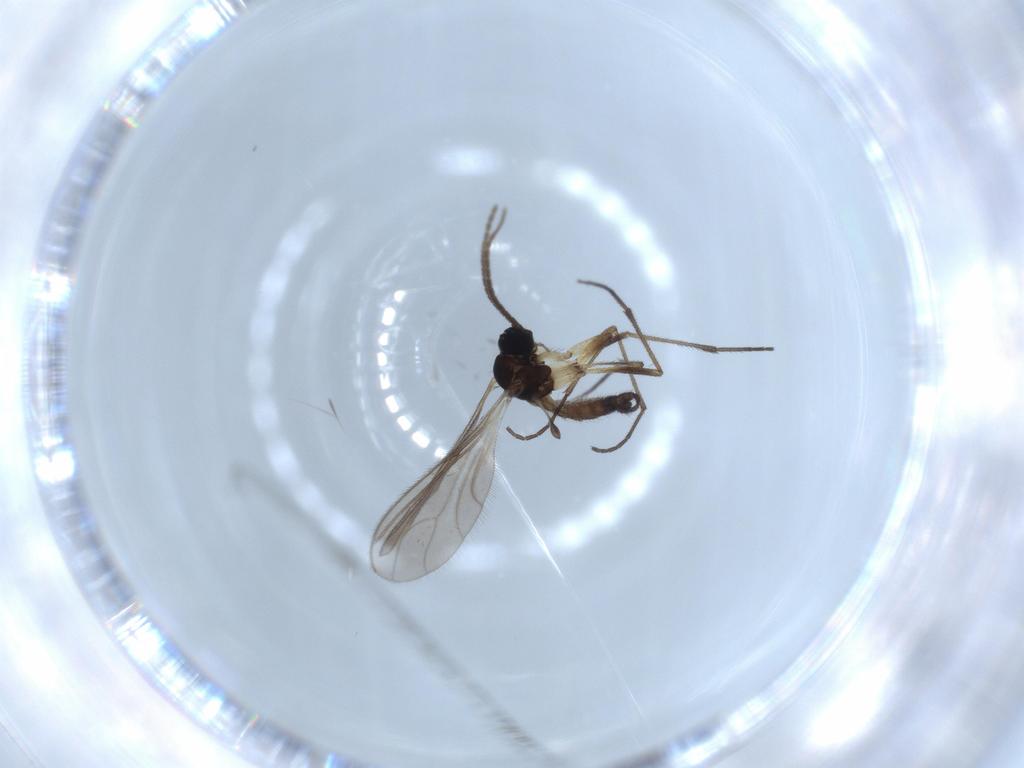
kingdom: Animalia
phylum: Arthropoda
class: Insecta
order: Diptera
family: Sciaridae
